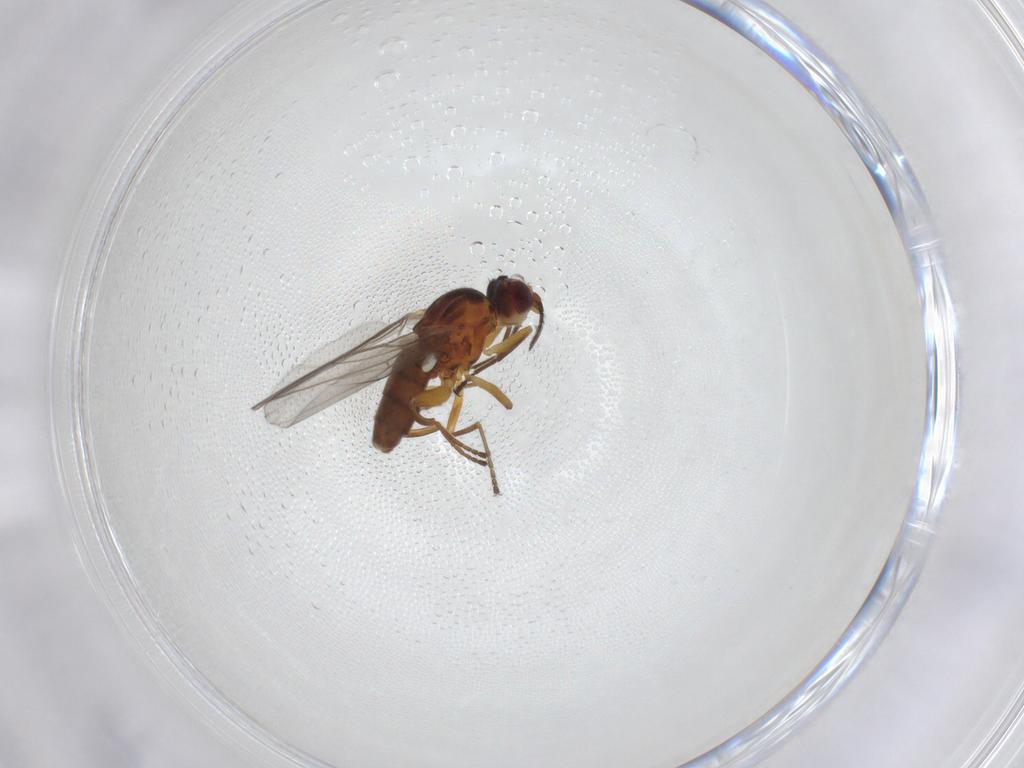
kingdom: Animalia
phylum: Arthropoda
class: Insecta
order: Diptera
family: Chloropidae
